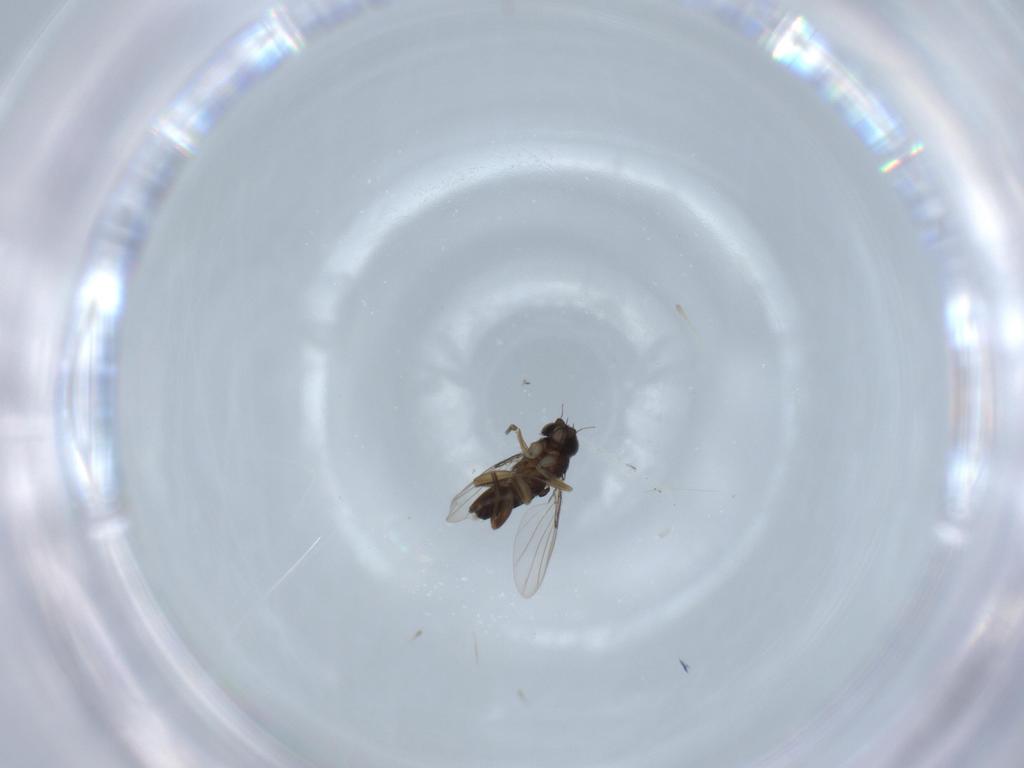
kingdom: Animalia
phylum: Arthropoda
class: Insecta
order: Diptera
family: Phoridae
